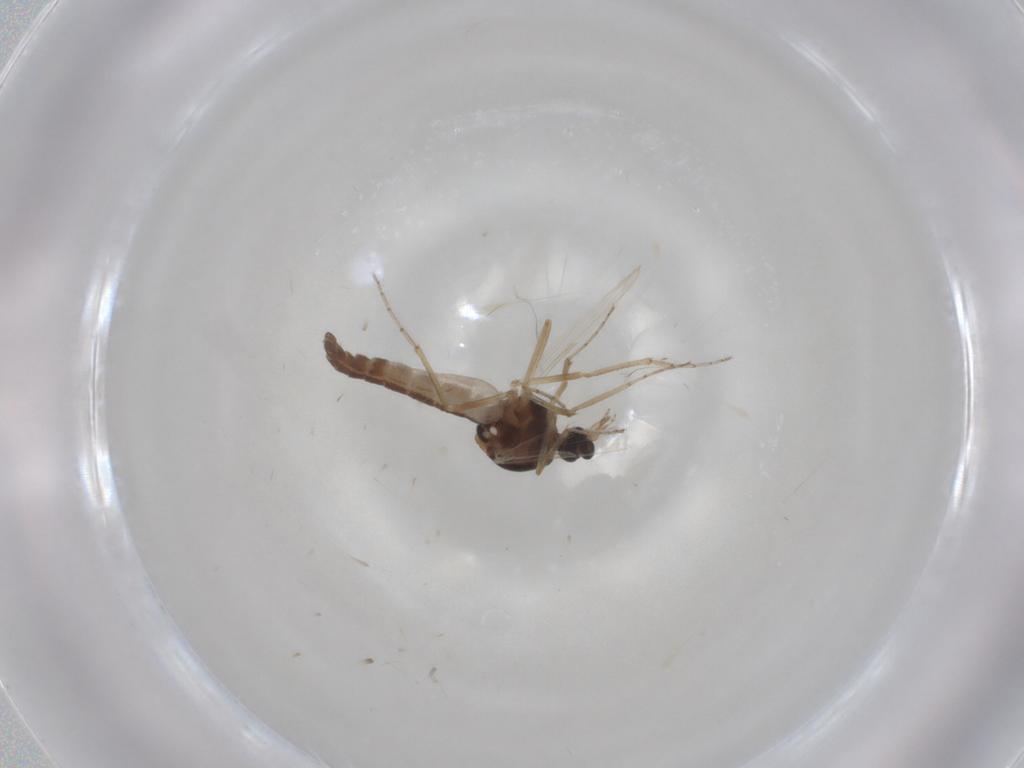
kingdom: Animalia
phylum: Arthropoda
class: Insecta
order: Diptera
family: Ceratopogonidae
